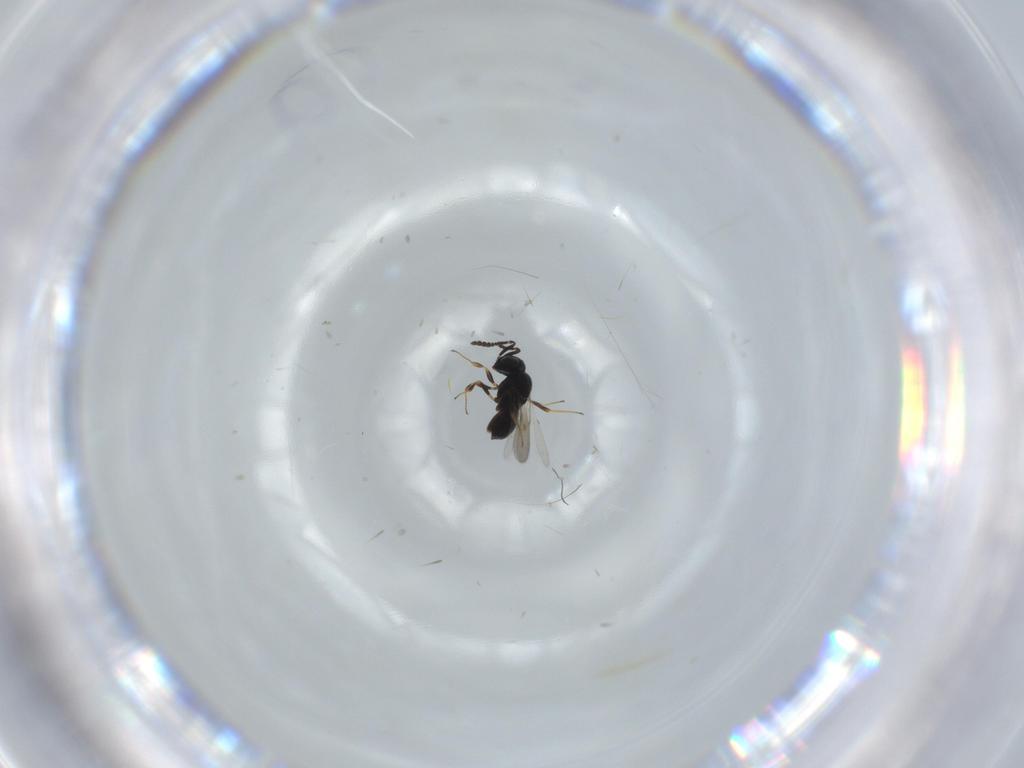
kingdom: Animalia
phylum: Arthropoda
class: Insecta
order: Hymenoptera
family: Scelionidae
